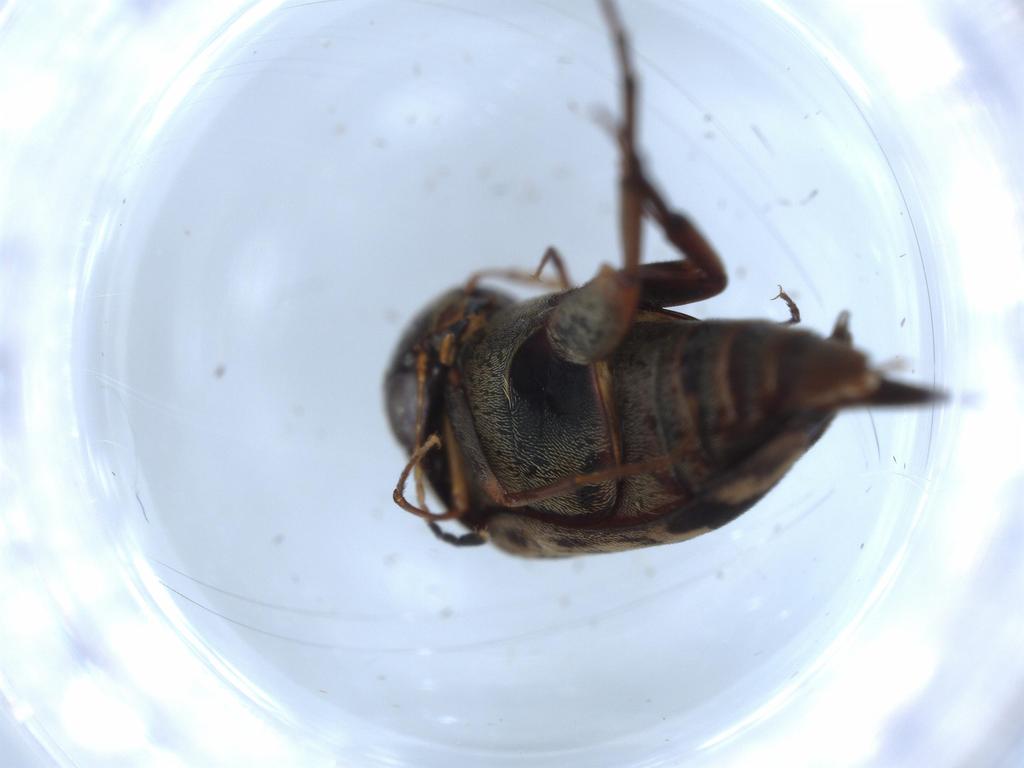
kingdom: Animalia
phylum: Arthropoda
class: Insecta
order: Coleoptera
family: Mordellidae
